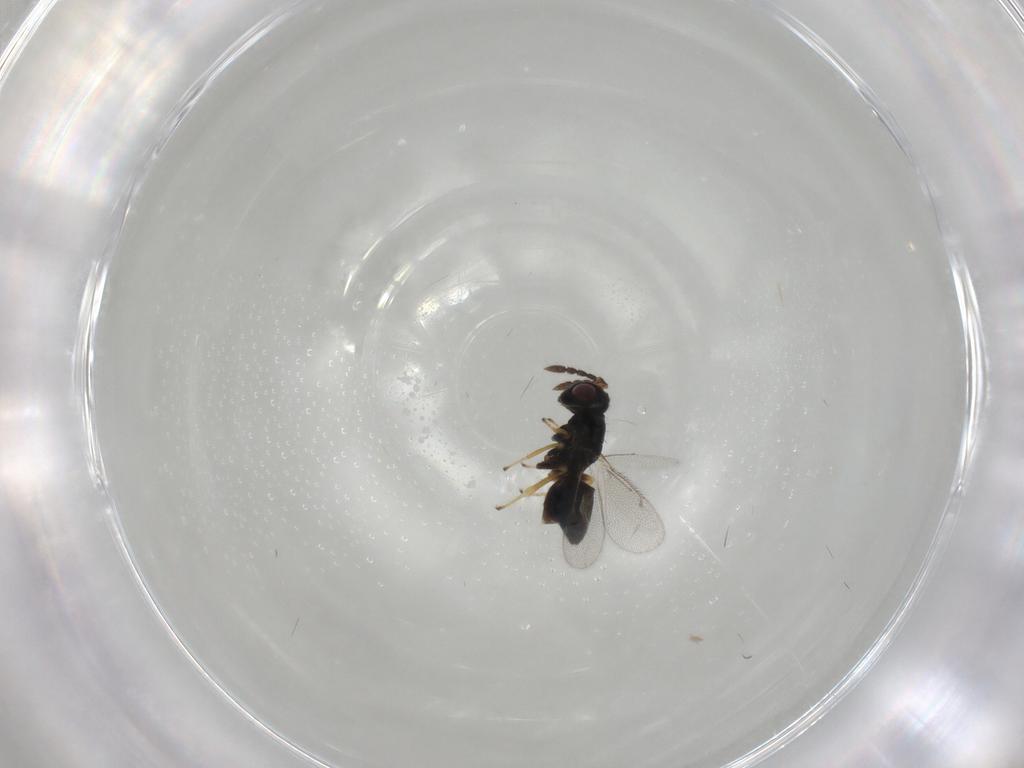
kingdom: Animalia
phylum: Arthropoda
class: Insecta
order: Hymenoptera
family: Eulophidae
